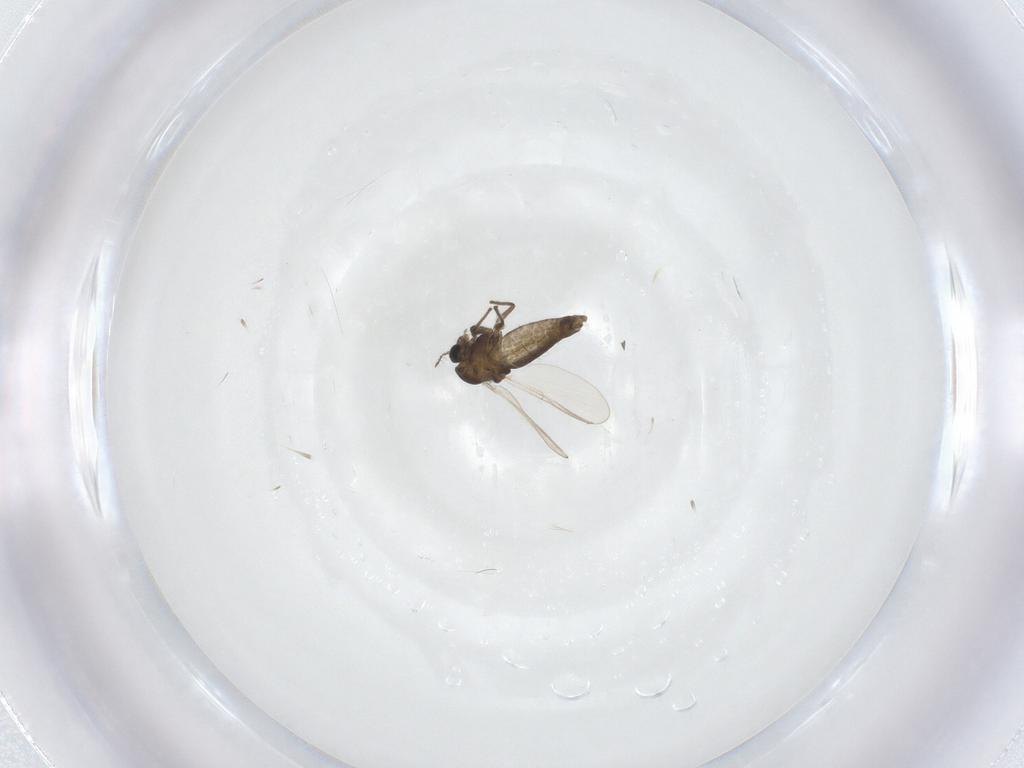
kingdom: Animalia
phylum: Arthropoda
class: Insecta
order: Diptera
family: Chironomidae
